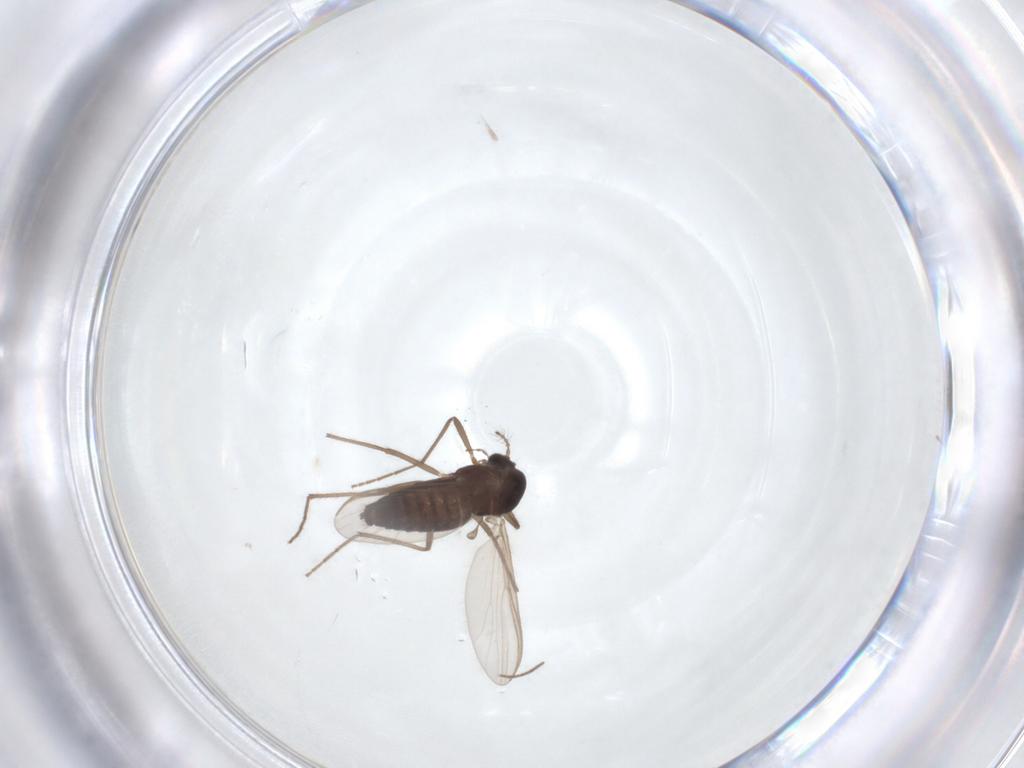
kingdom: Animalia
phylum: Arthropoda
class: Insecta
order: Diptera
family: Chironomidae
